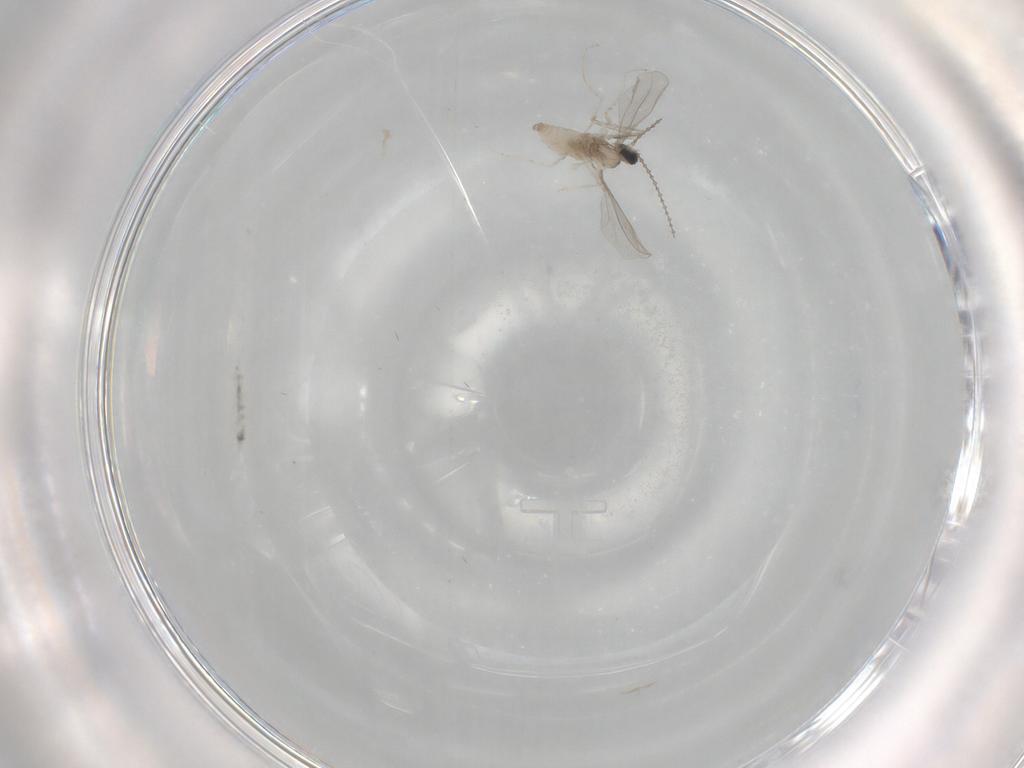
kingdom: Animalia
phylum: Arthropoda
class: Insecta
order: Diptera
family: Cecidomyiidae
